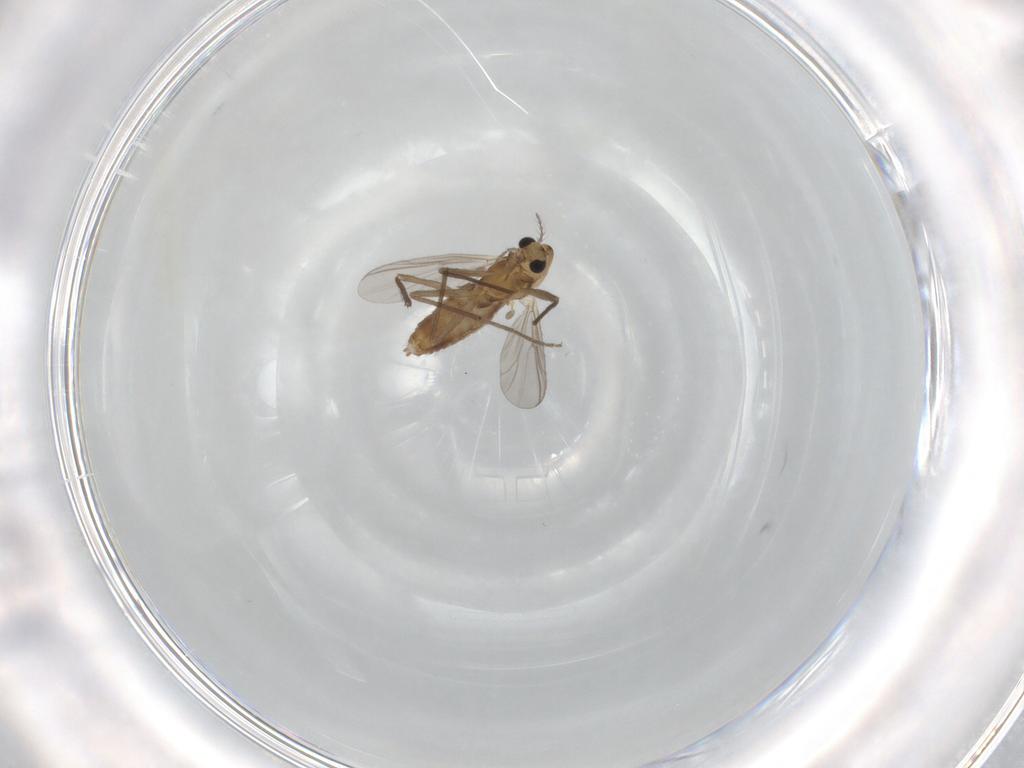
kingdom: Animalia
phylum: Arthropoda
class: Insecta
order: Diptera
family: Chironomidae
